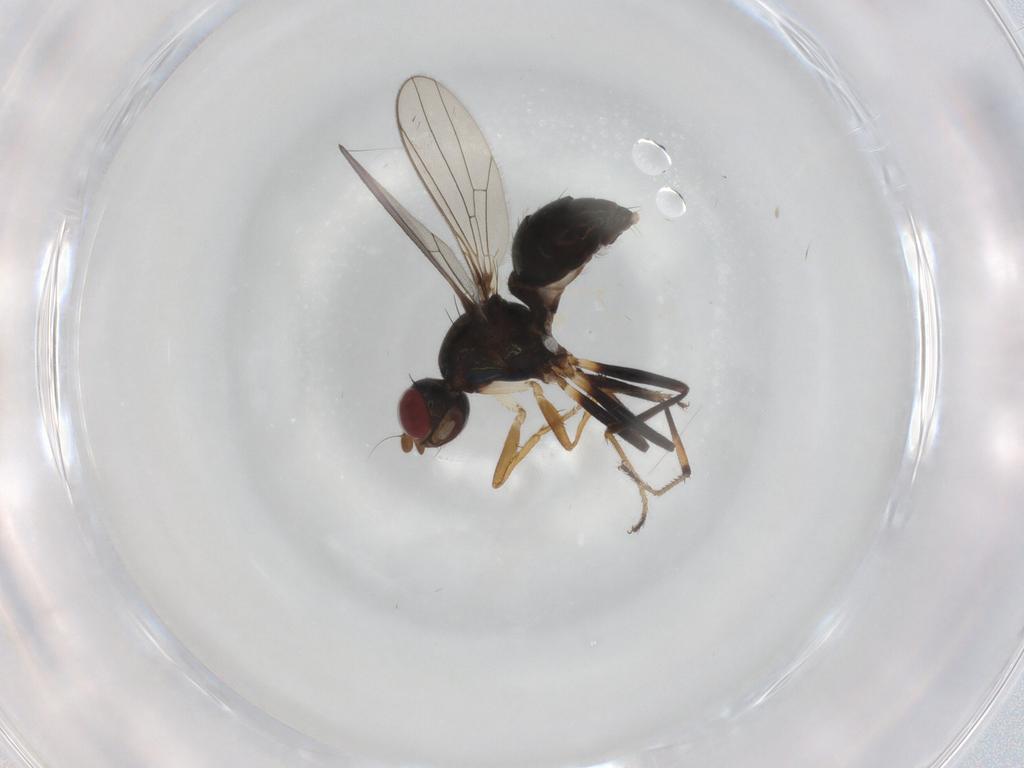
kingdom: Animalia
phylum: Arthropoda
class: Insecta
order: Diptera
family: Sepsidae
